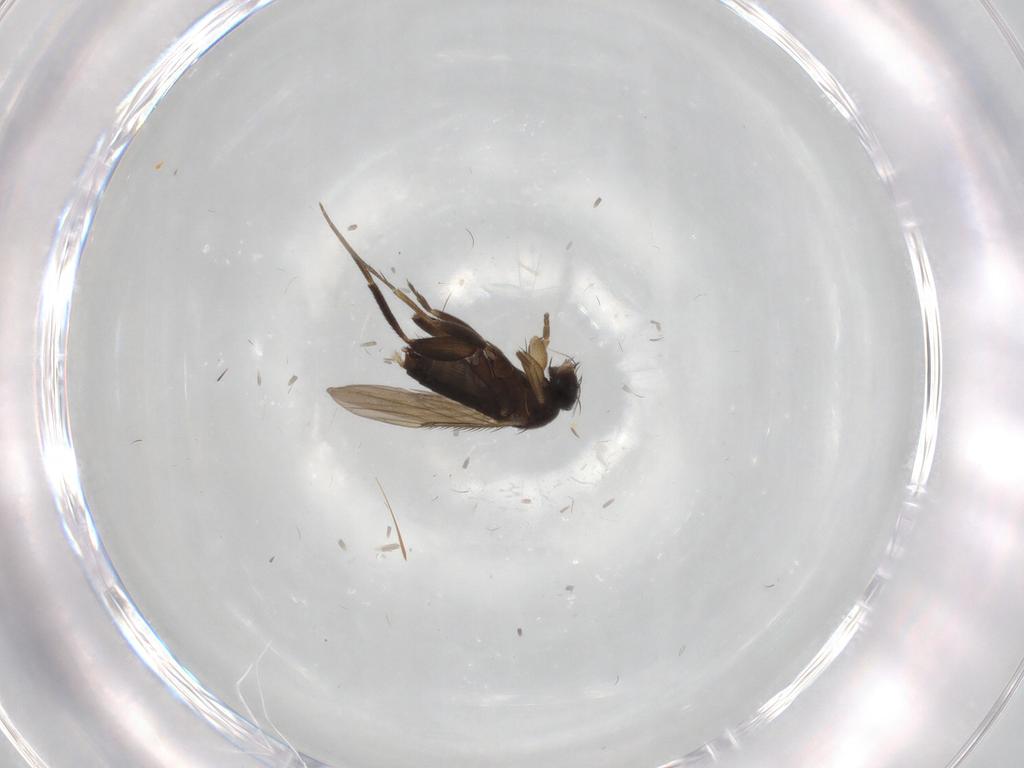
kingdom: Animalia
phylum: Arthropoda
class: Insecta
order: Diptera
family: Phoridae
